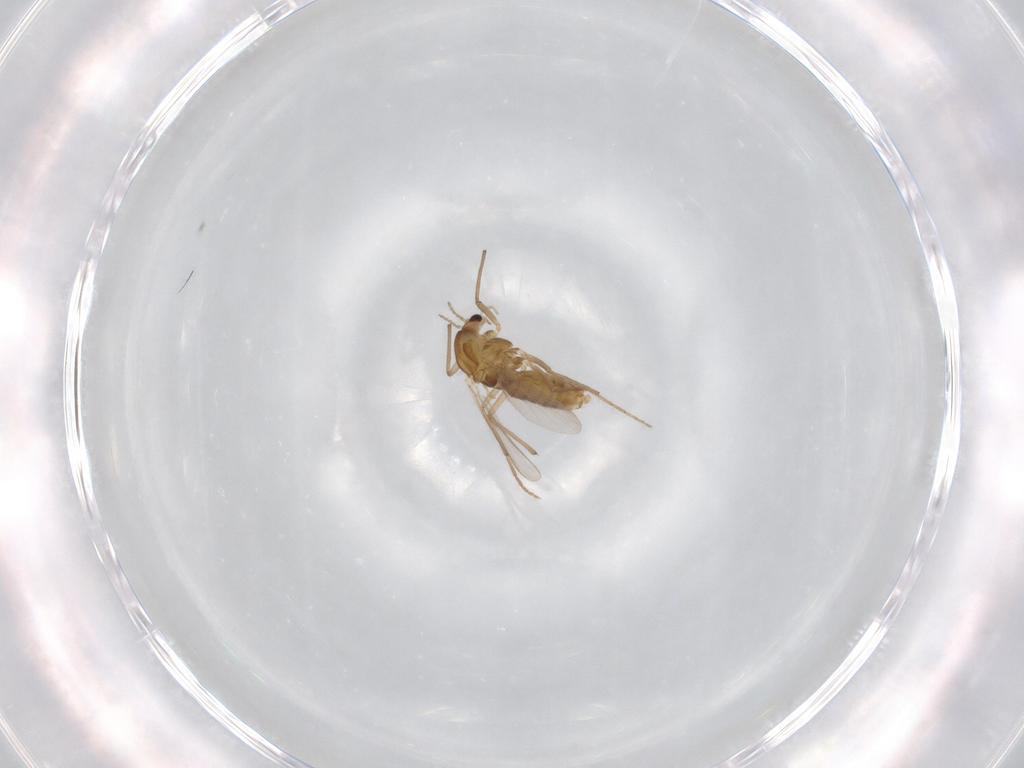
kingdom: Animalia
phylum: Arthropoda
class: Insecta
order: Diptera
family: Chironomidae
